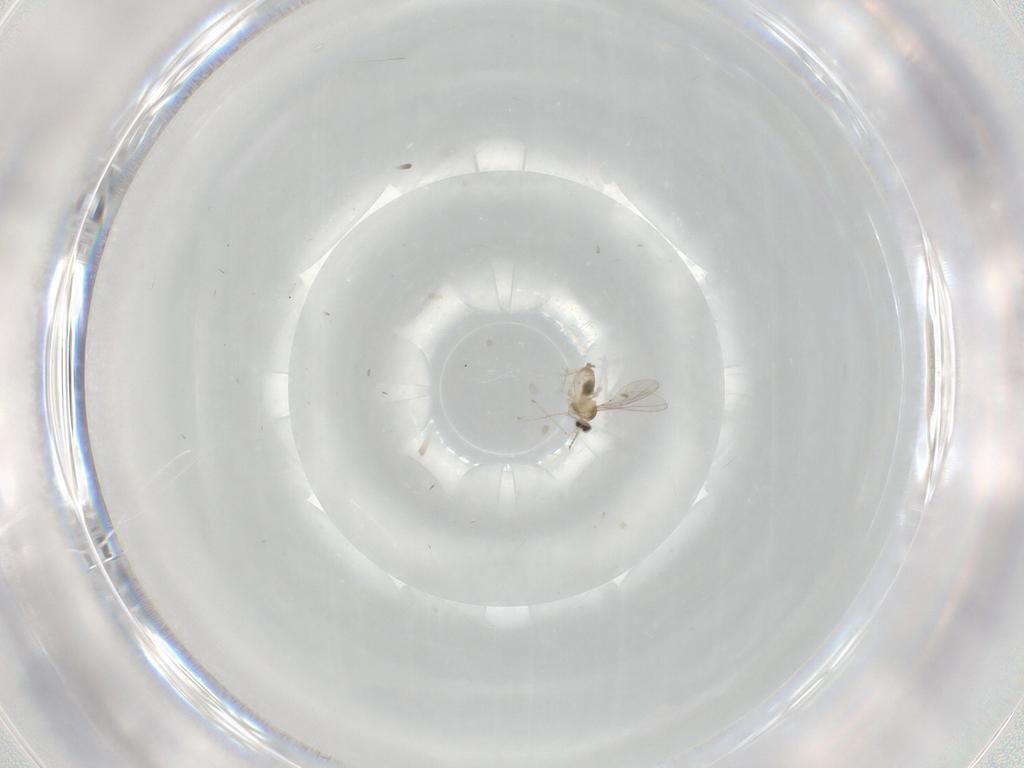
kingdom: Animalia
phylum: Arthropoda
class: Insecta
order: Diptera
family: Cecidomyiidae
